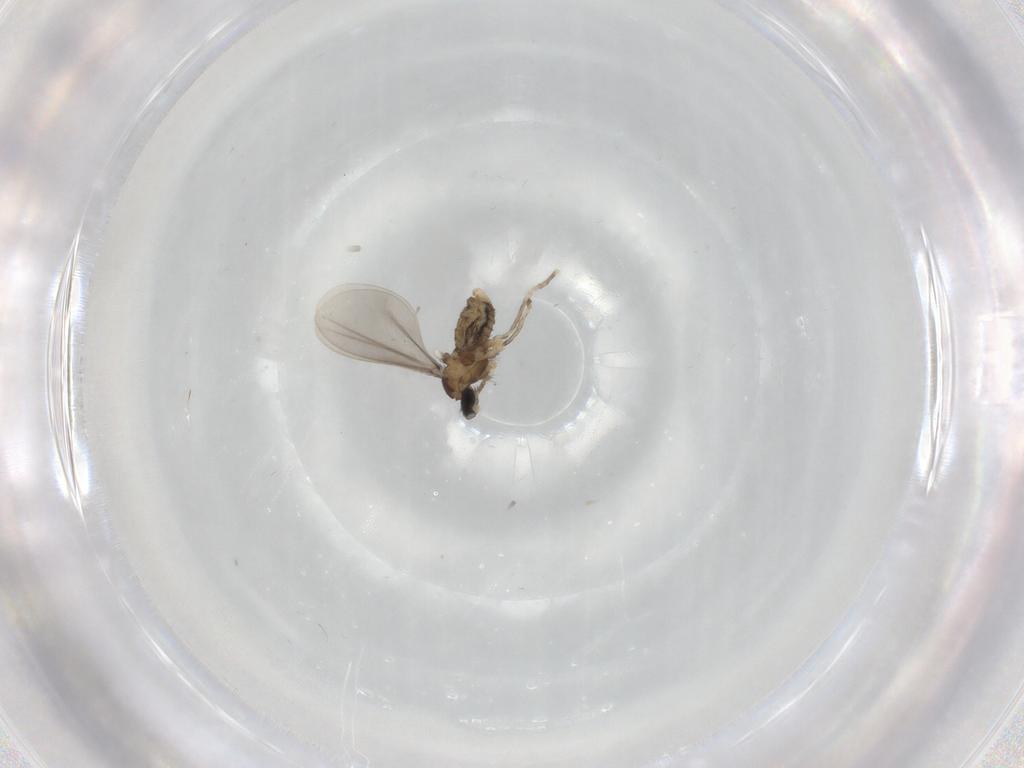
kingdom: Animalia
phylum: Arthropoda
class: Insecta
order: Diptera
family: Cecidomyiidae
